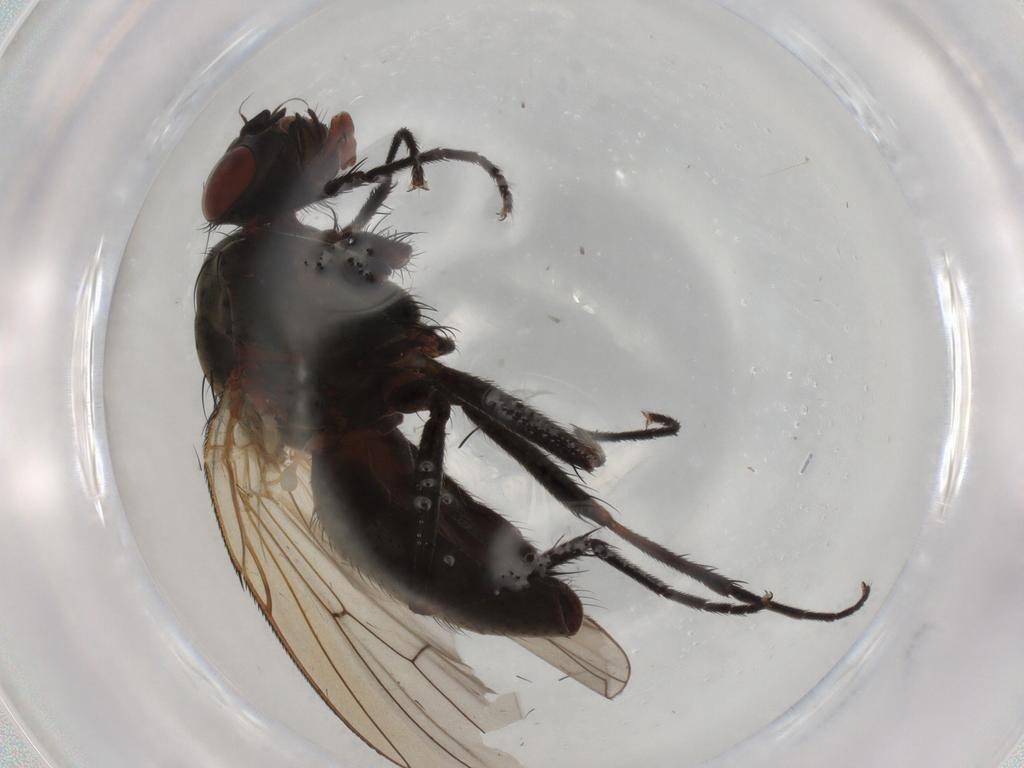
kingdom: Animalia
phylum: Arthropoda
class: Insecta
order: Diptera
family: Anthomyiidae
